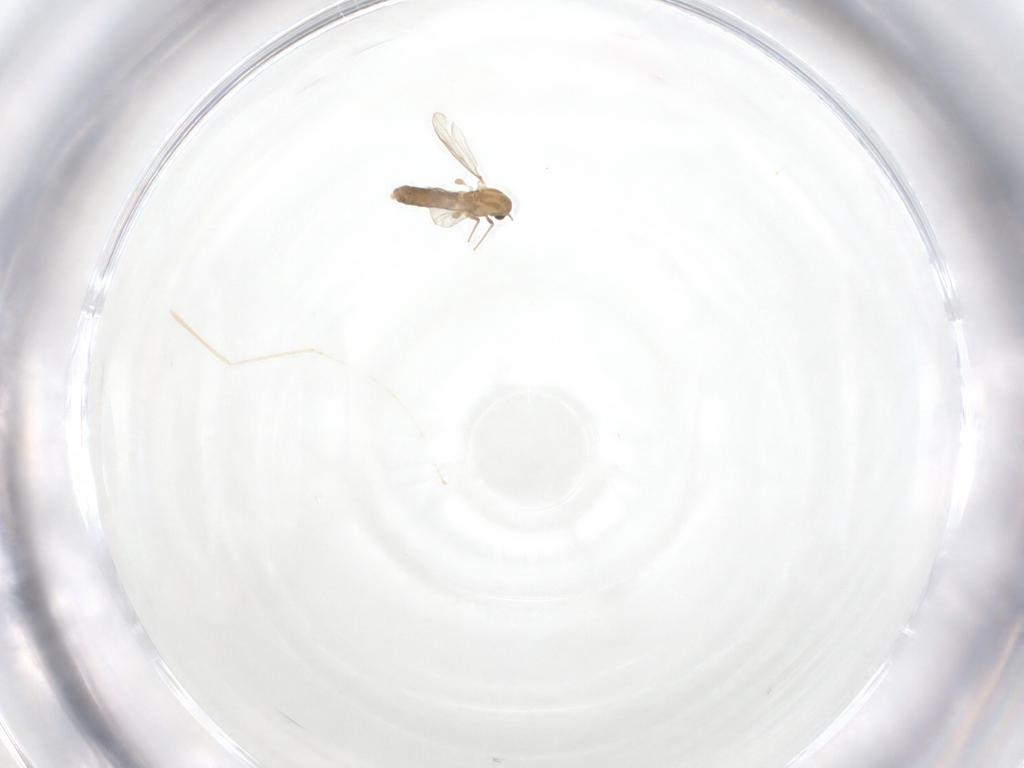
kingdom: Animalia
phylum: Arthropoda
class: Insecta
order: Diptera
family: Chironomidae
